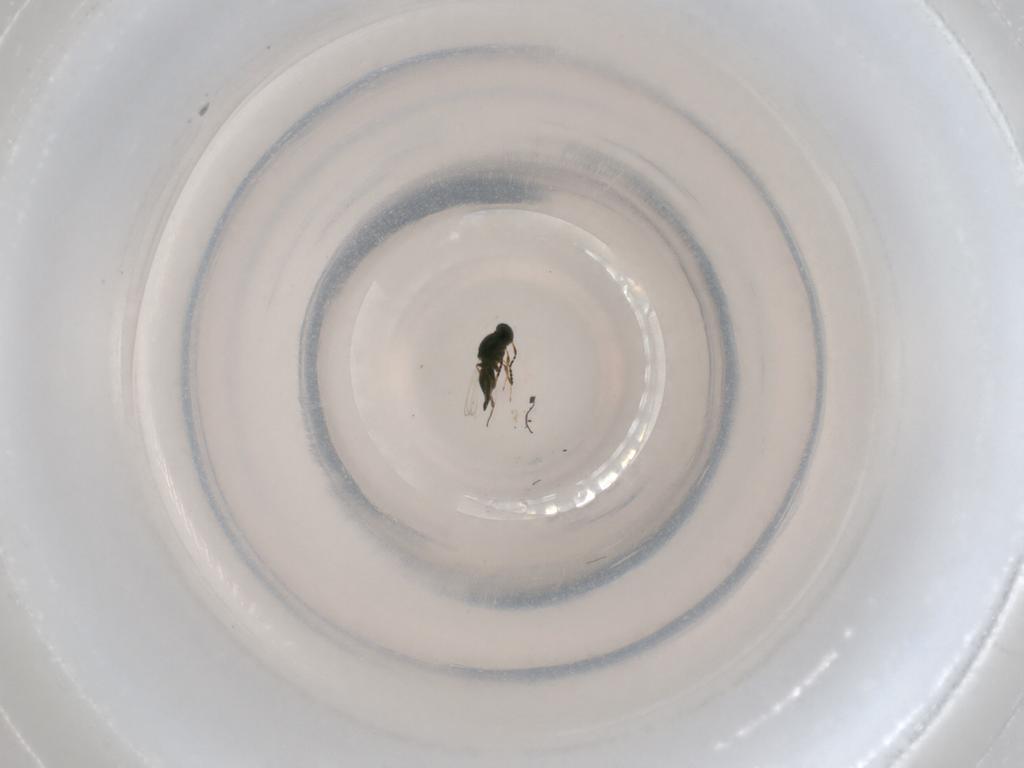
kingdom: Animalia
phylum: Arthropoda
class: Insecta
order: Hymenoptera
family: Platygastridae
